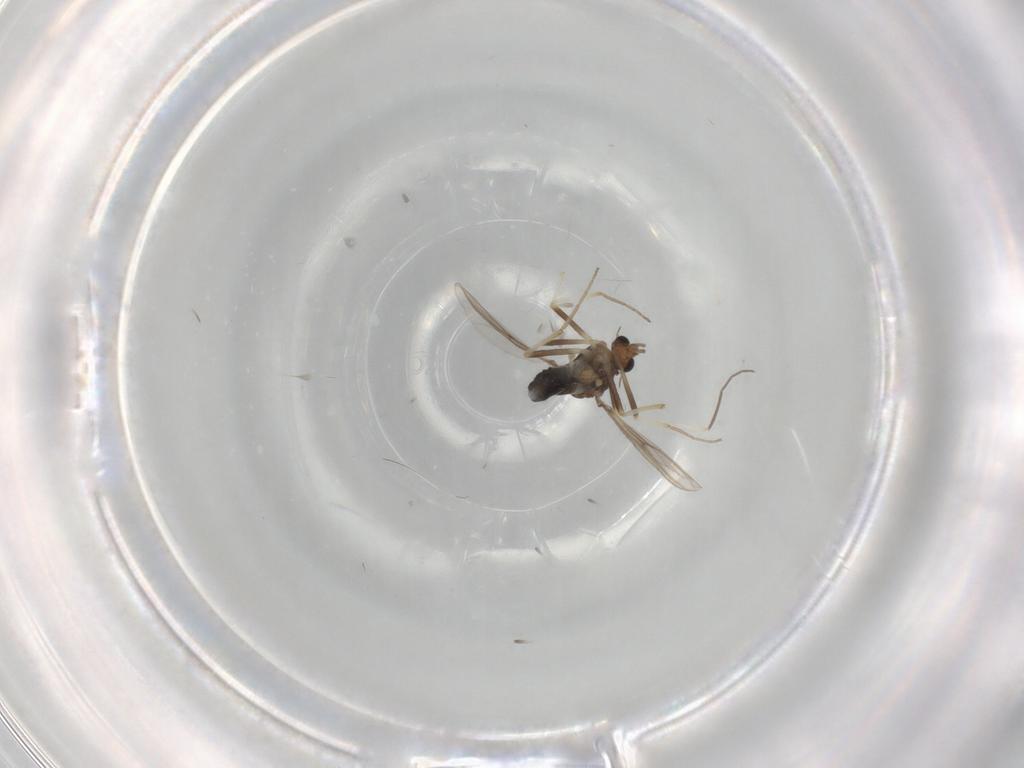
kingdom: Animalia
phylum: Arthropoda
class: Insecta
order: Diptera
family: Chironomidae
